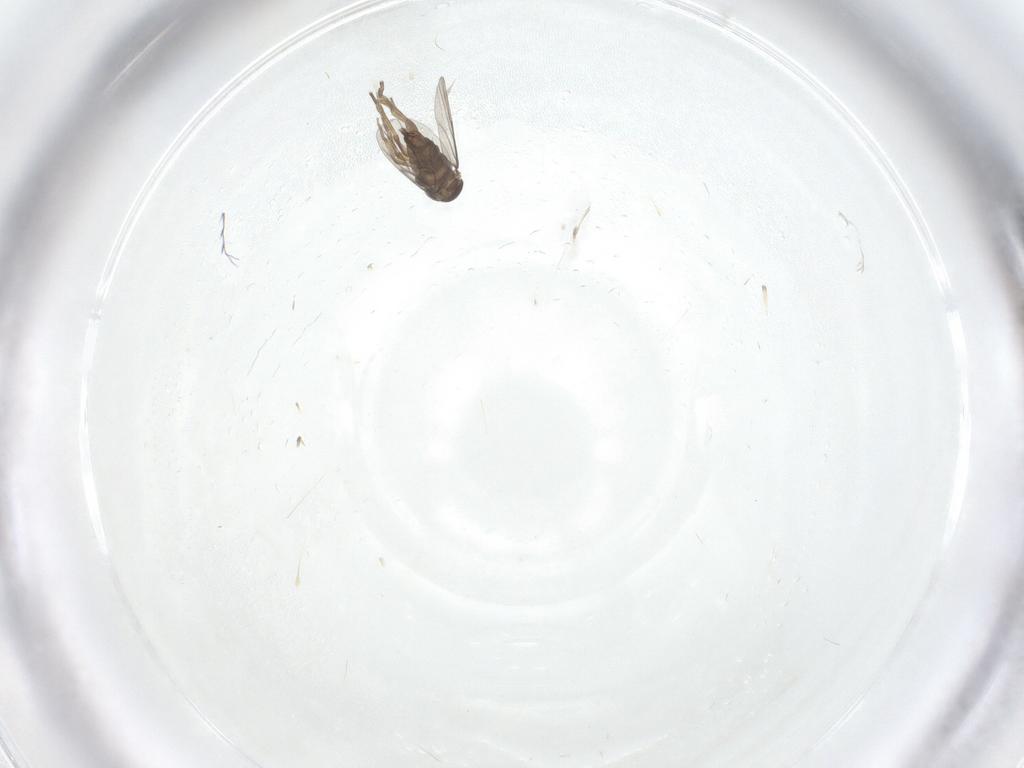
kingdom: Animalia
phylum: Arthropoda
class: Insecta
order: Diptera
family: Phoridae
